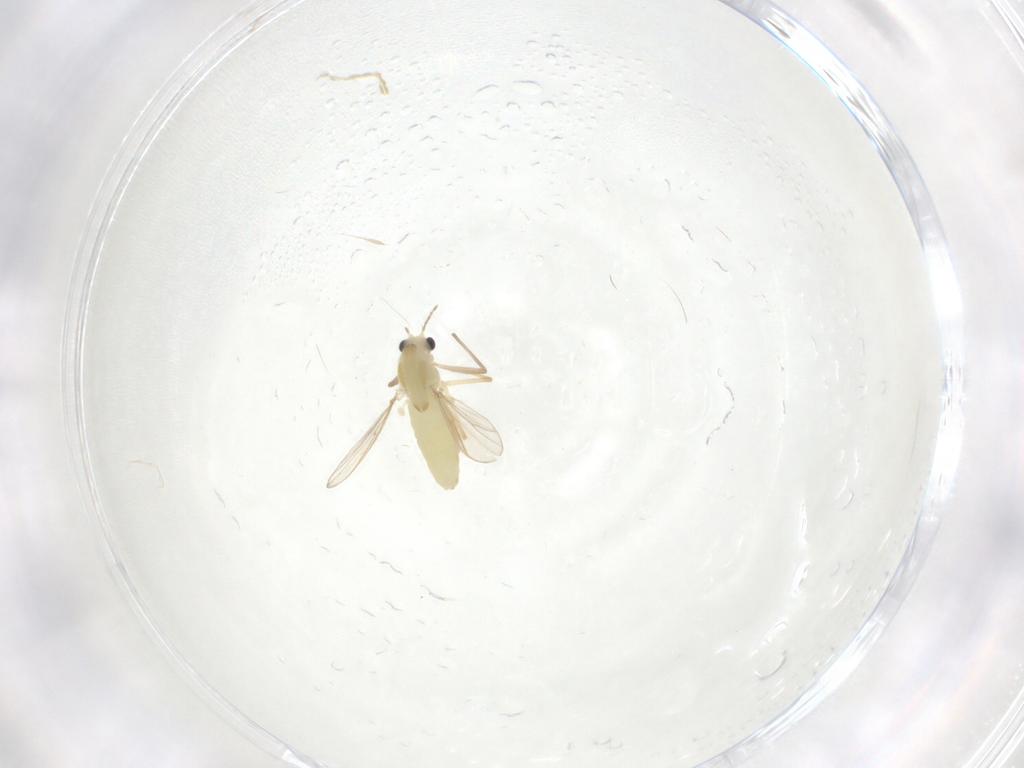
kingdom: Animalia
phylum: Arthropoda
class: Insecta
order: Diptera
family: Chironomidae
